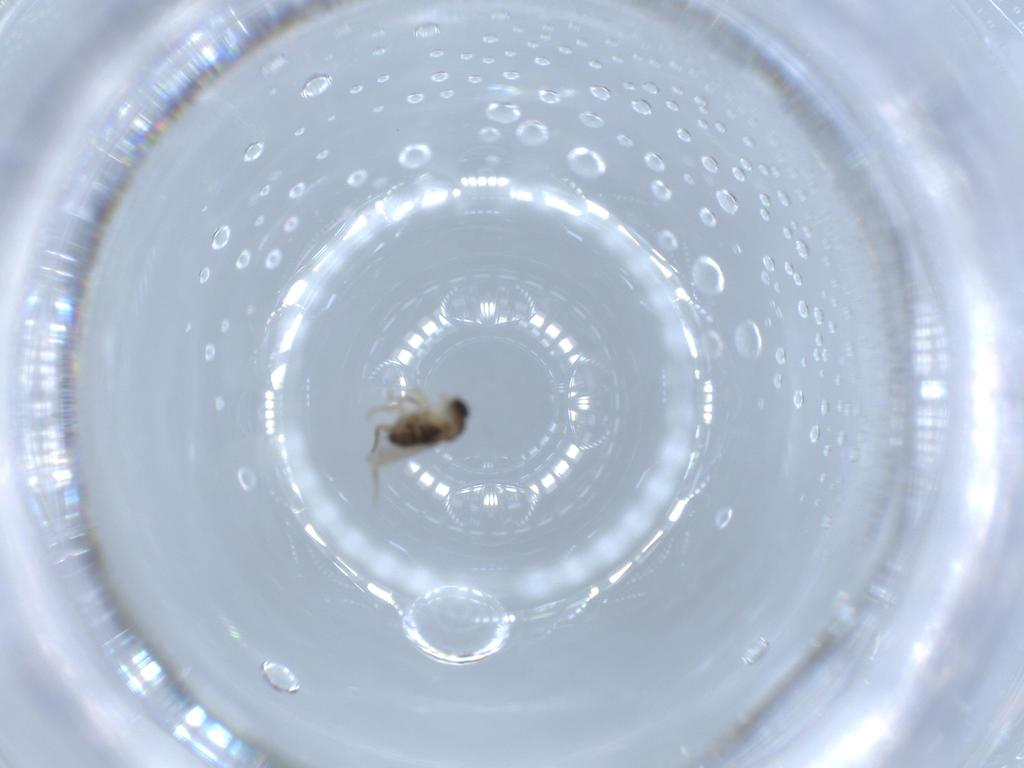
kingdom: Animalia
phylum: Arthropoda
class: Insecta
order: Diptera
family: Phoridae
